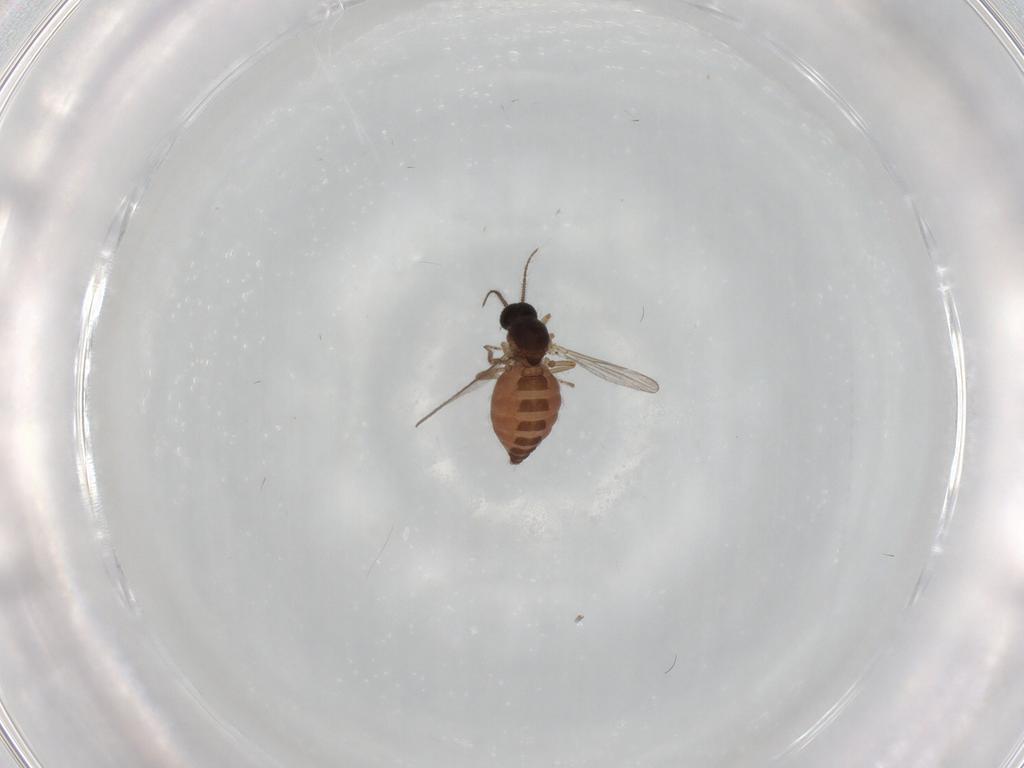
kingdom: Animalia
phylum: Arthropoda
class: Insecta
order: Diptera
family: Ceratopogonidae
